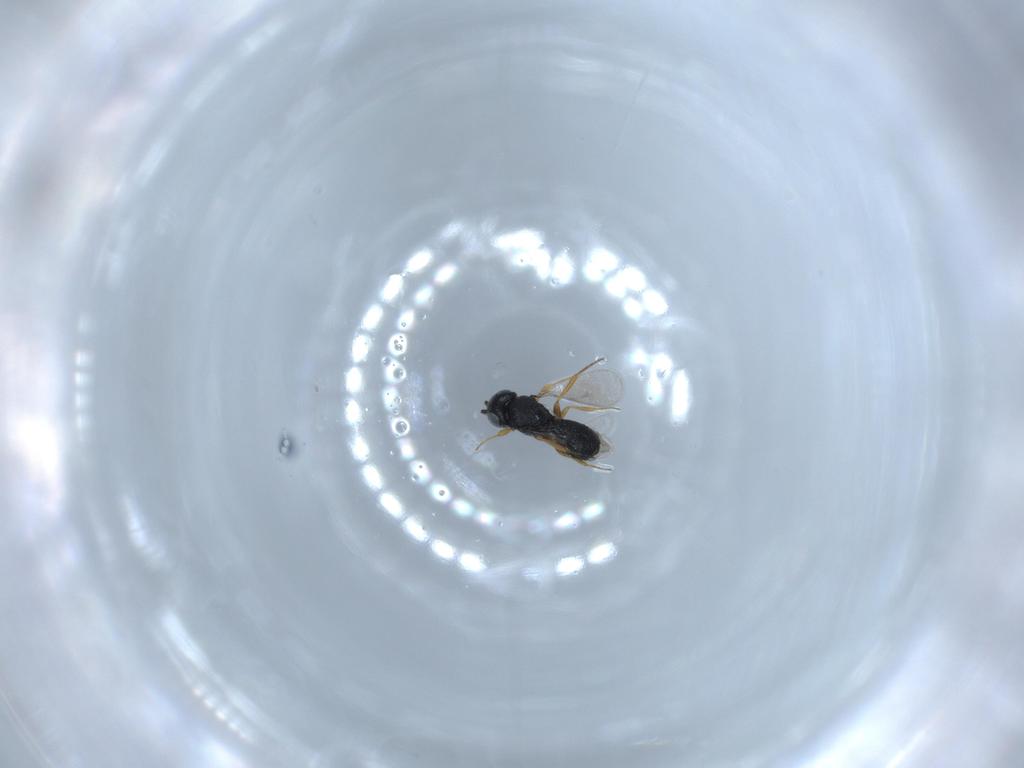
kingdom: Animalia
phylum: Arthropoda
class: Insecta
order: Hymenoptera
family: Scelionidae
